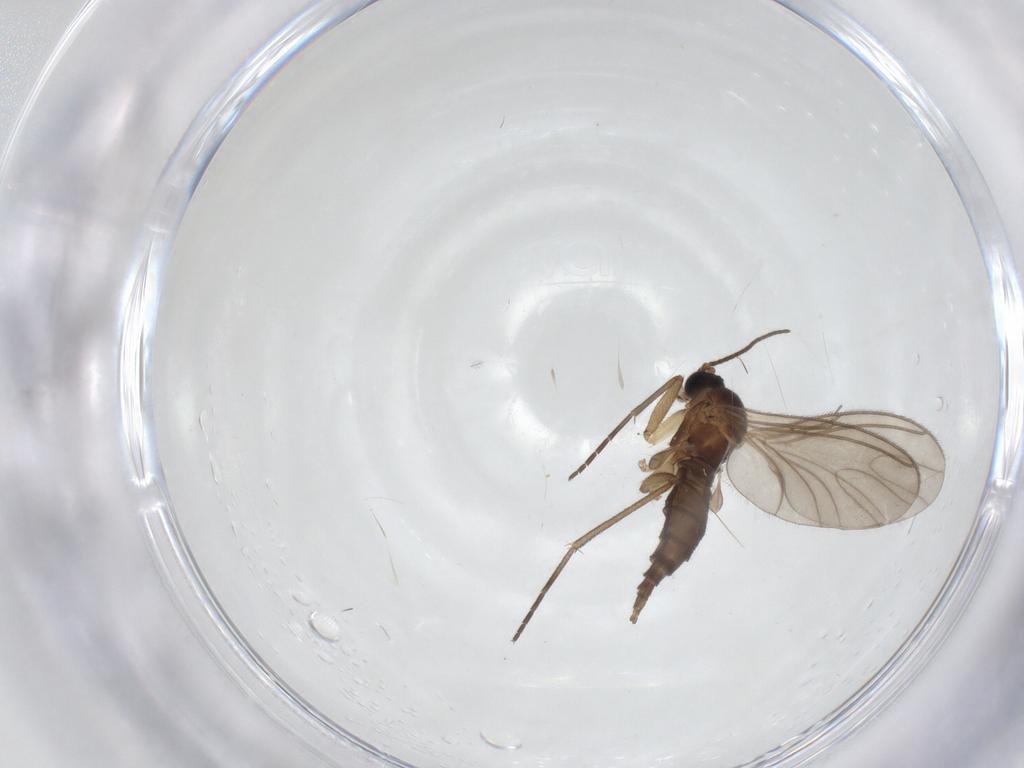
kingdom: Animalia
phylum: Arthropoda
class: Insecta
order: Diptera
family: Sciaridae
